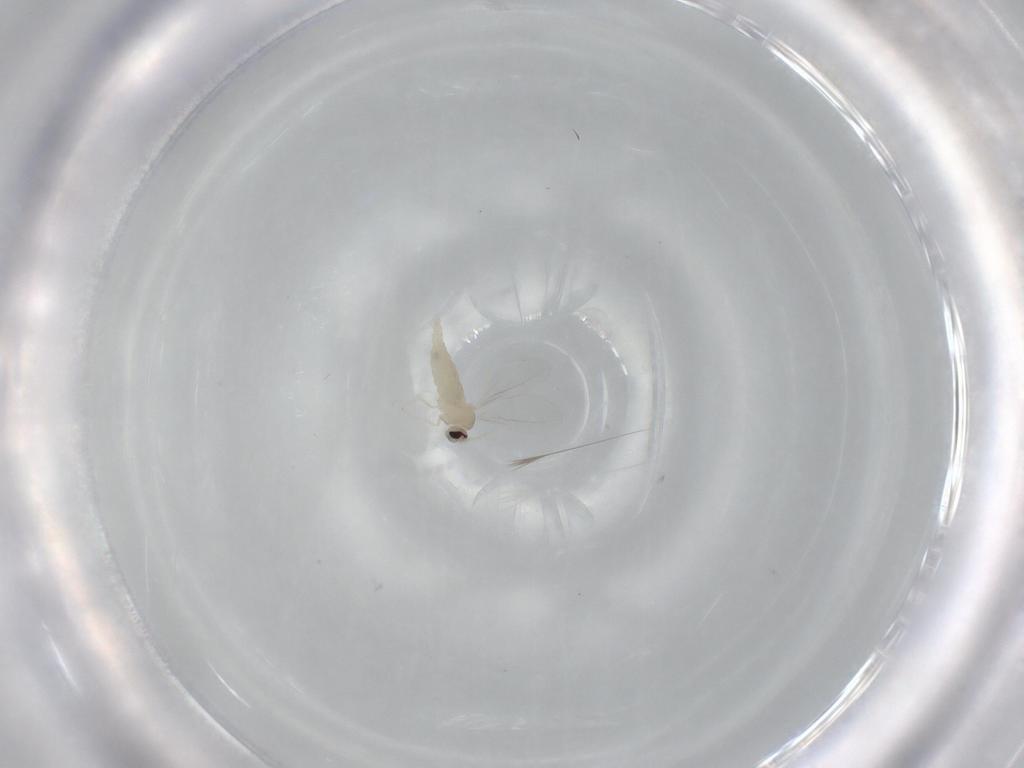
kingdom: Animalia
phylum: Arthropoda
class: Insecta
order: Diptera
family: Cecidomyiidae
